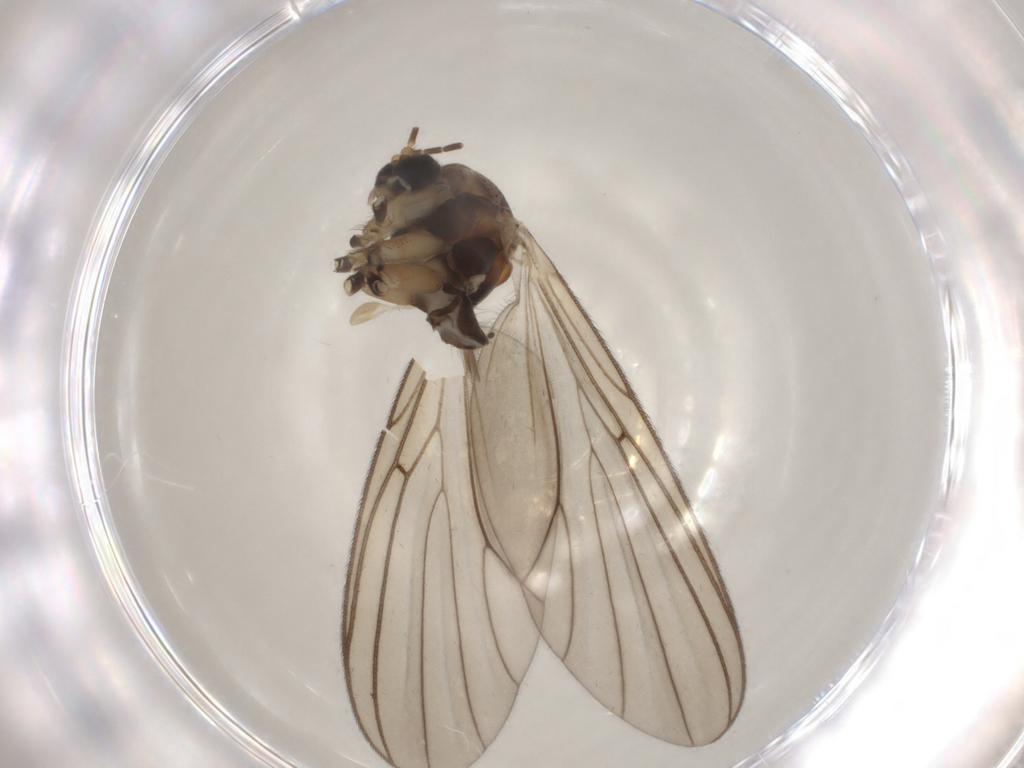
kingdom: Animalia
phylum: Arthropoda
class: Insecta
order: Diptera
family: Mycetophilidae
